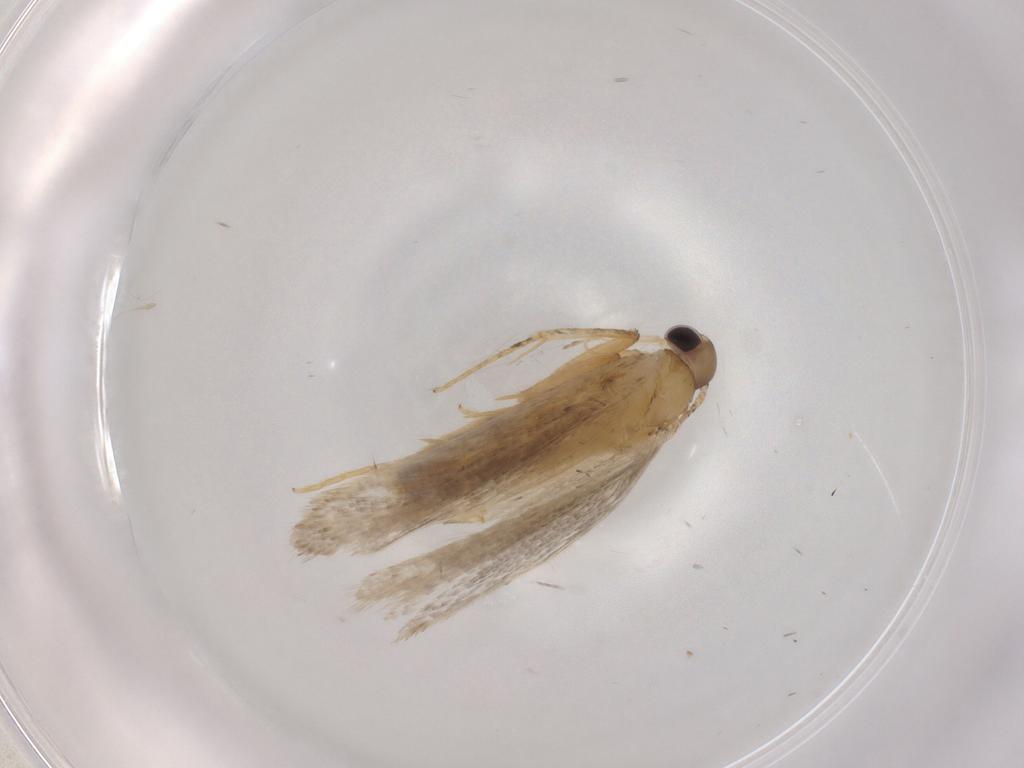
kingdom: Animalia
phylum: Arthropoda
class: Insecta
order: Lepidoptera
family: Autostichidae
